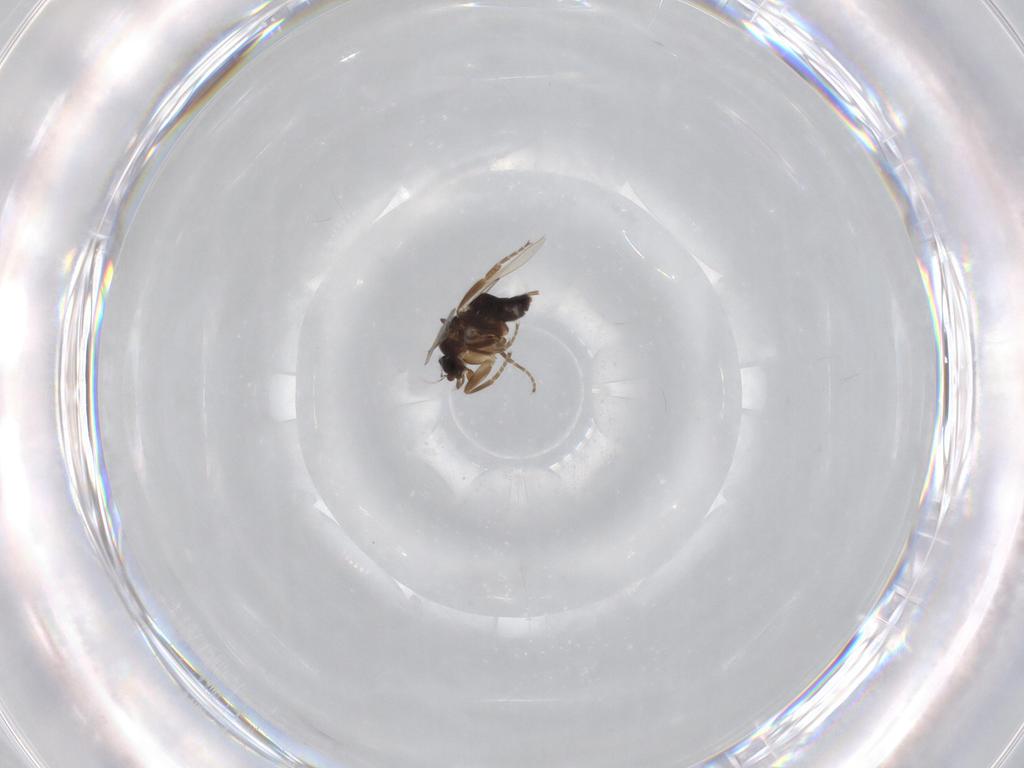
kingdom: Animalia
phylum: Arthropoda
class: Insecta
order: Diptera
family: Phoridae
